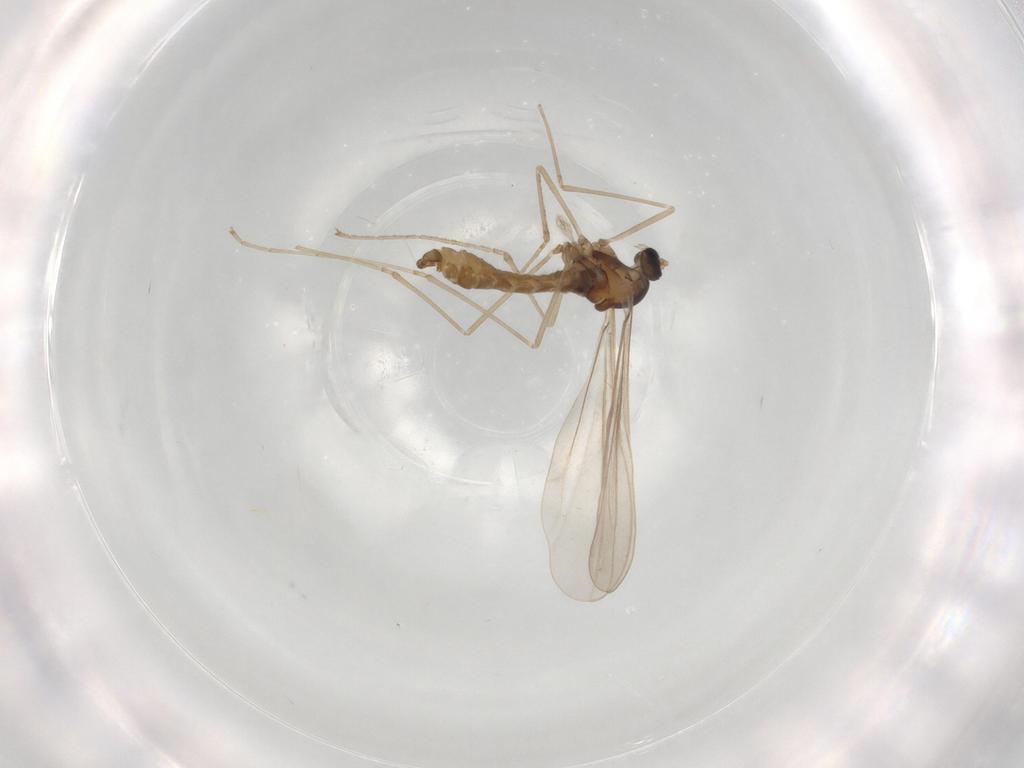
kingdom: Animalia
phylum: Arthropoda
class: Insecta
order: Diptera
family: Cecidomyiidae
